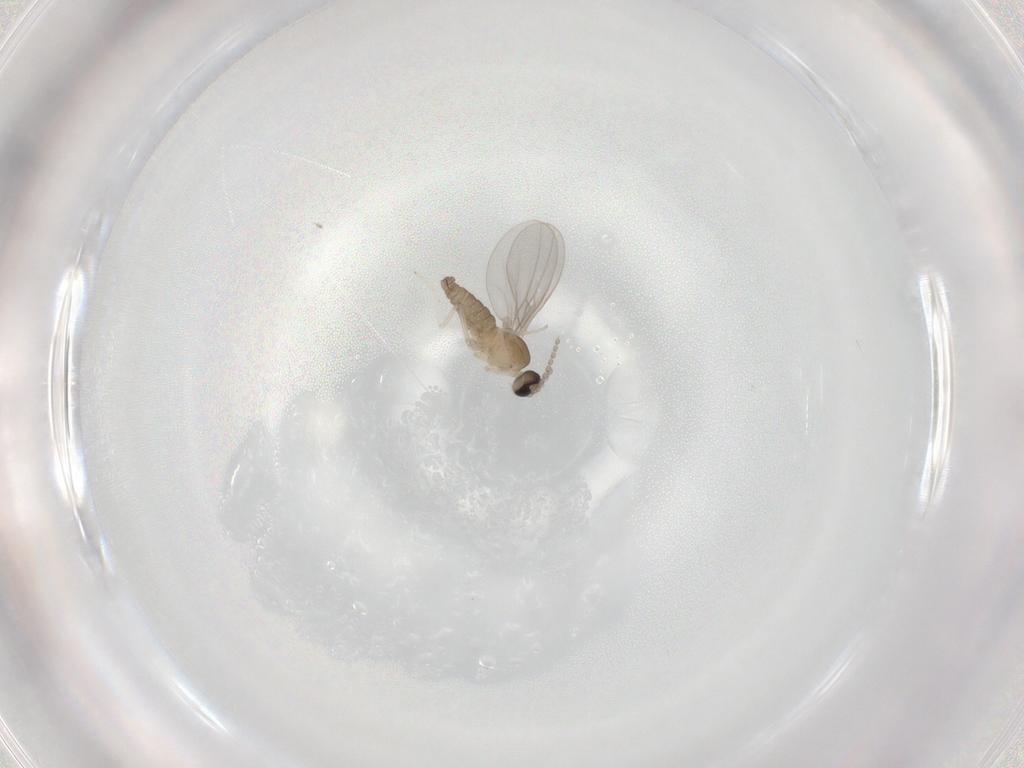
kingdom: Animalia
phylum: Arthropoda
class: Insecta
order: Diptera
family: Cecidomyiidae
